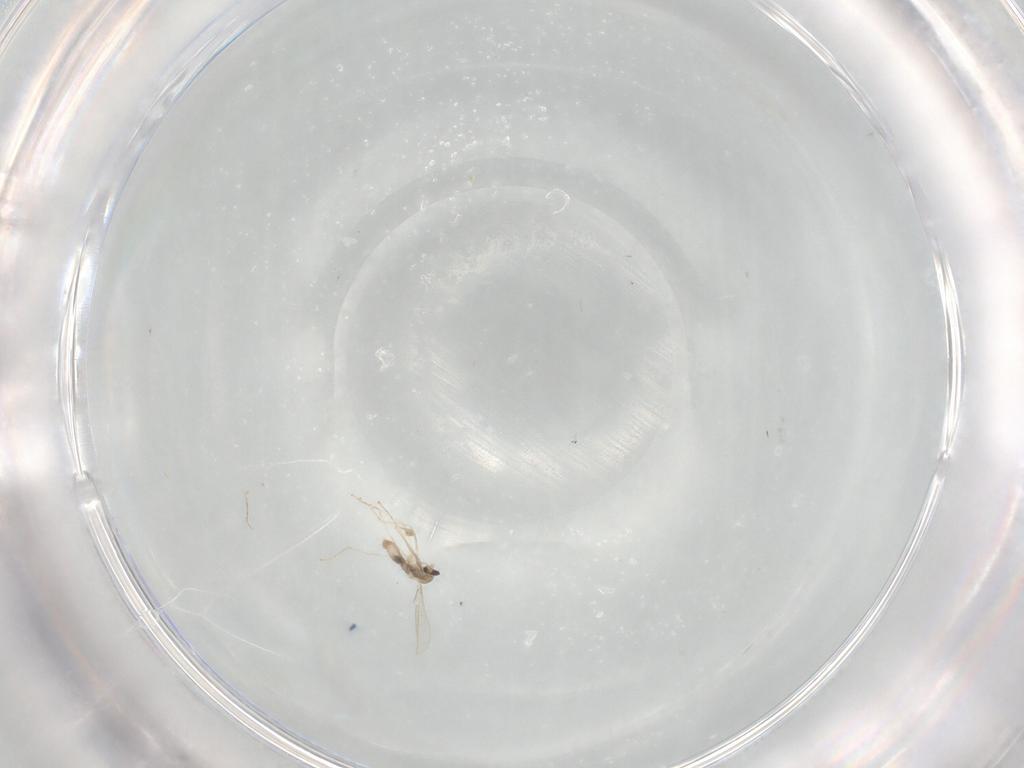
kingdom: Animalia
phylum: Arthropoda
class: Insecta
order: Diptera
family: Cecidomyiidae
